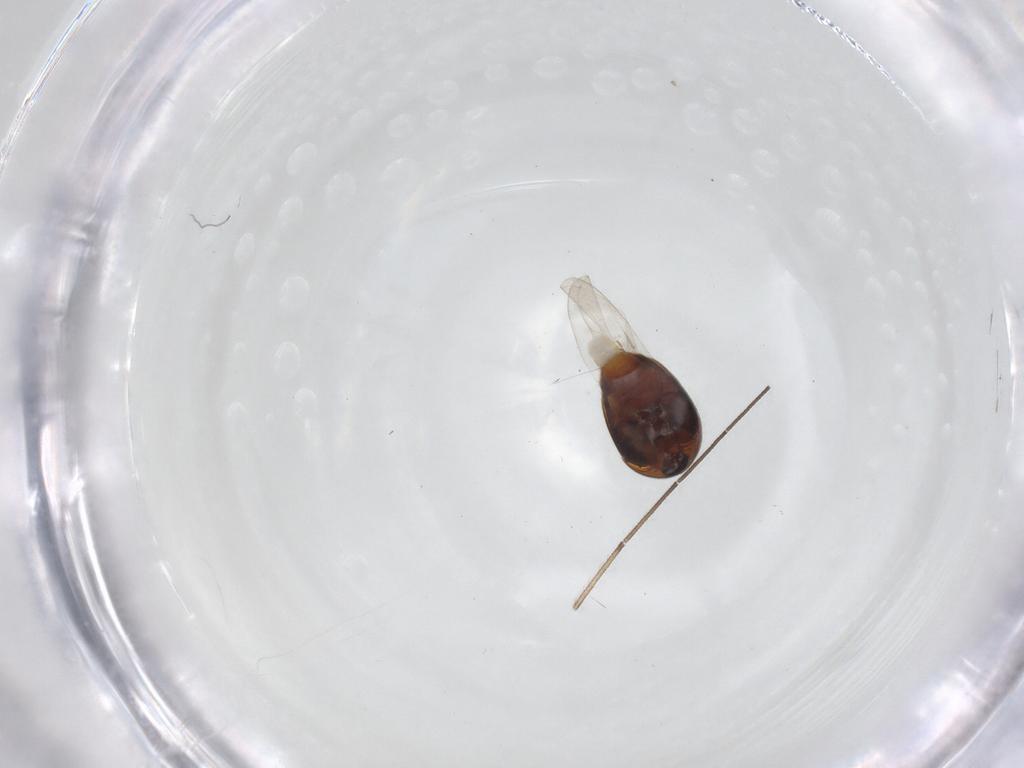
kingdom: Animalia
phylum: Arthropoda
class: Insecta
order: Coleoptera
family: Corylophidae
